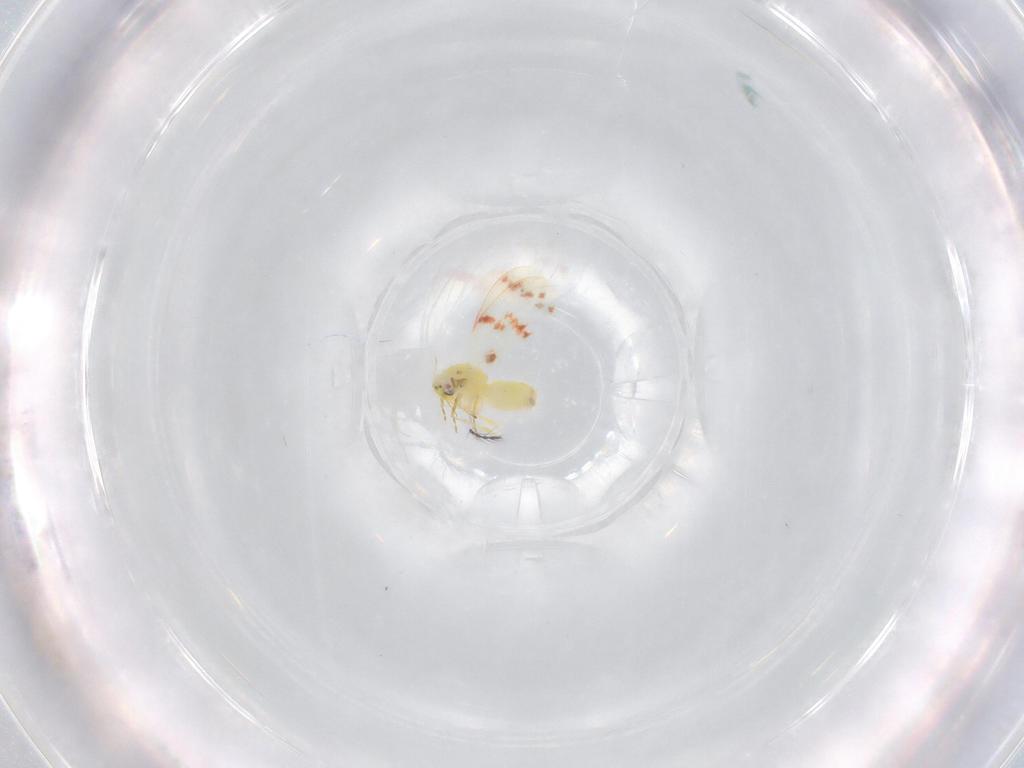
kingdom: Animalia
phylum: Arthropoda
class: Insecta
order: Hemiptera
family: Aleyrodidae
